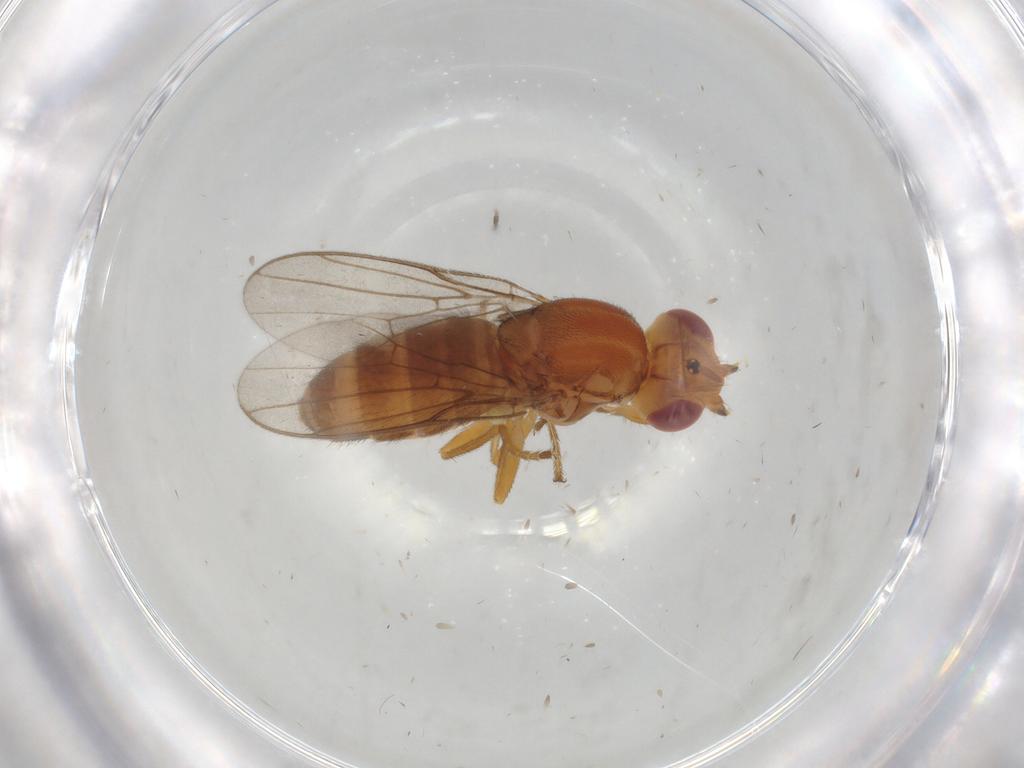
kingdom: Animalia
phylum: Arthropoda
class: Insecta
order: Diptera
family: Chloropidae
